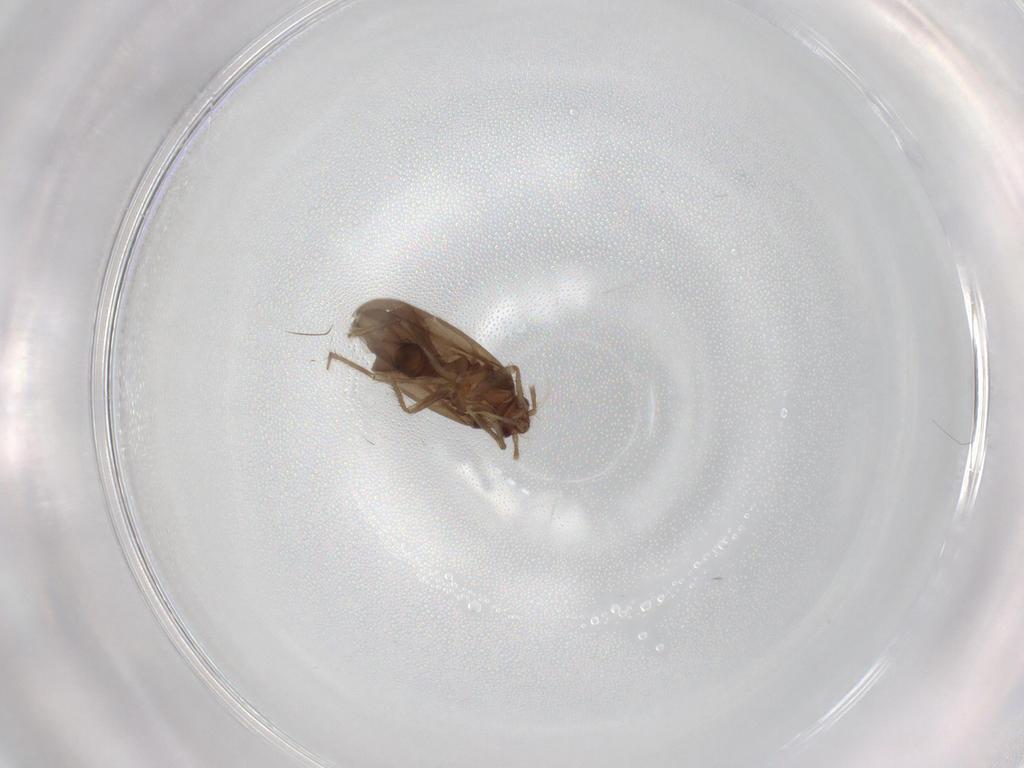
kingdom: Animalia
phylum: Arthropoda
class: Insecta
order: Hemiptera
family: Ceratocombidae
